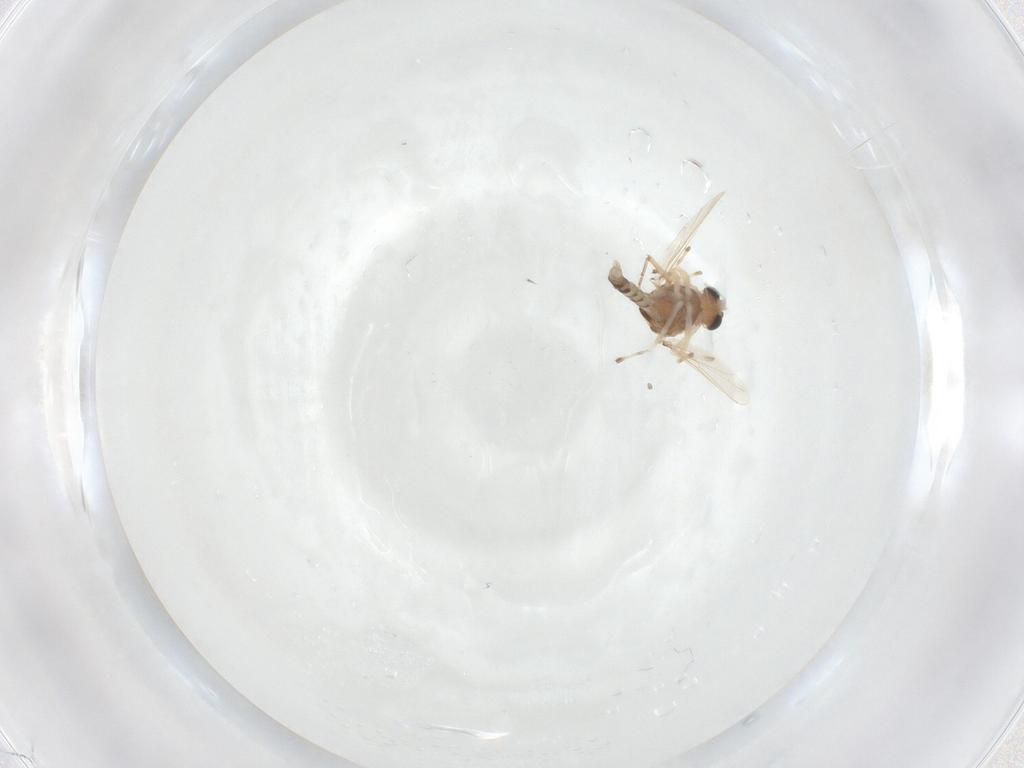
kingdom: Animalia
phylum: Arthropoda
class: Insecta
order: Diptera
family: Ceratopogonidae
